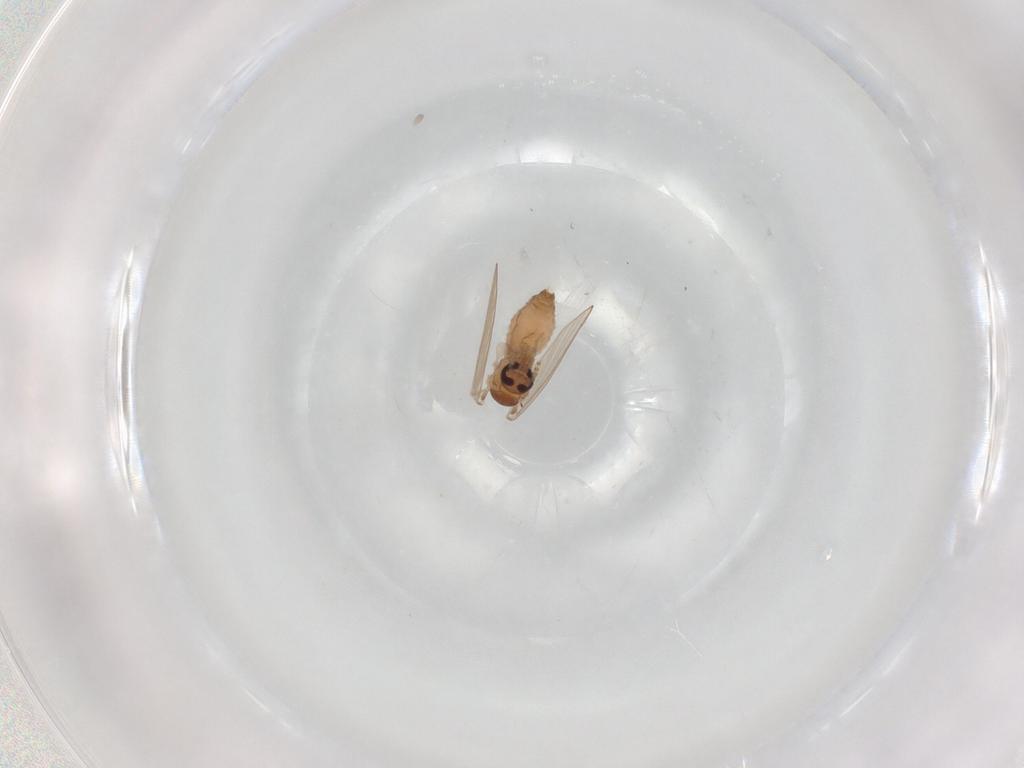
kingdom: Animalia
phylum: Arthropoda
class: Insecta
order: Diptera
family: Psychodidae
